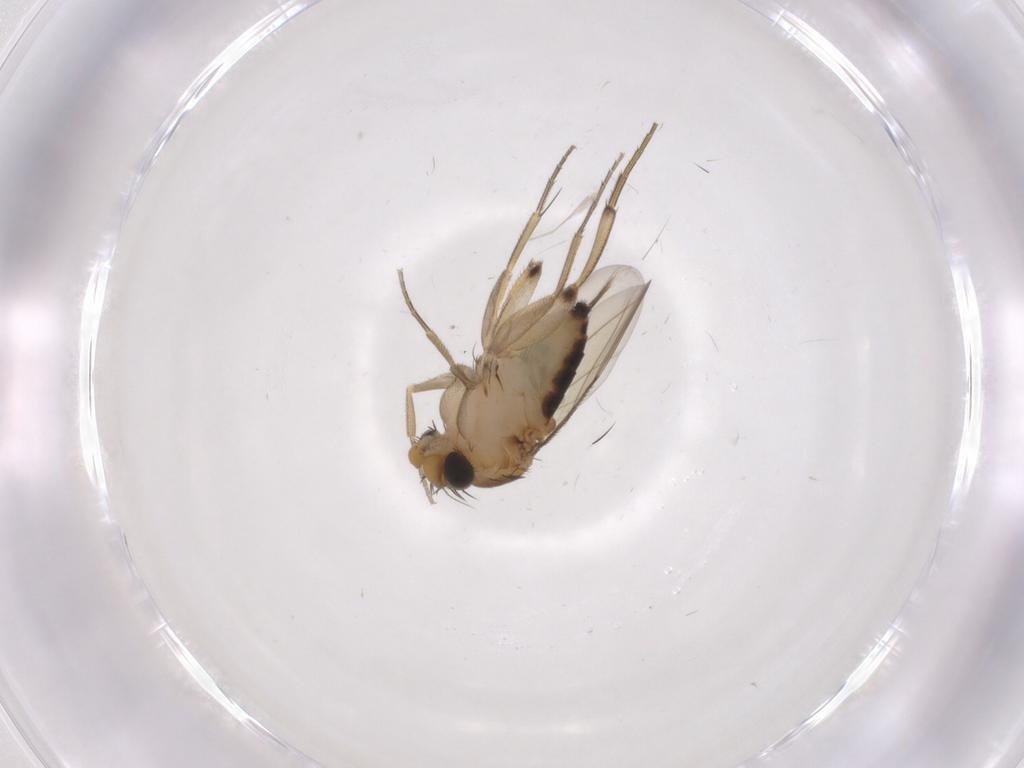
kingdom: Animalia
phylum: Arthropoda
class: Insecta
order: Diptera
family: Phoridae
